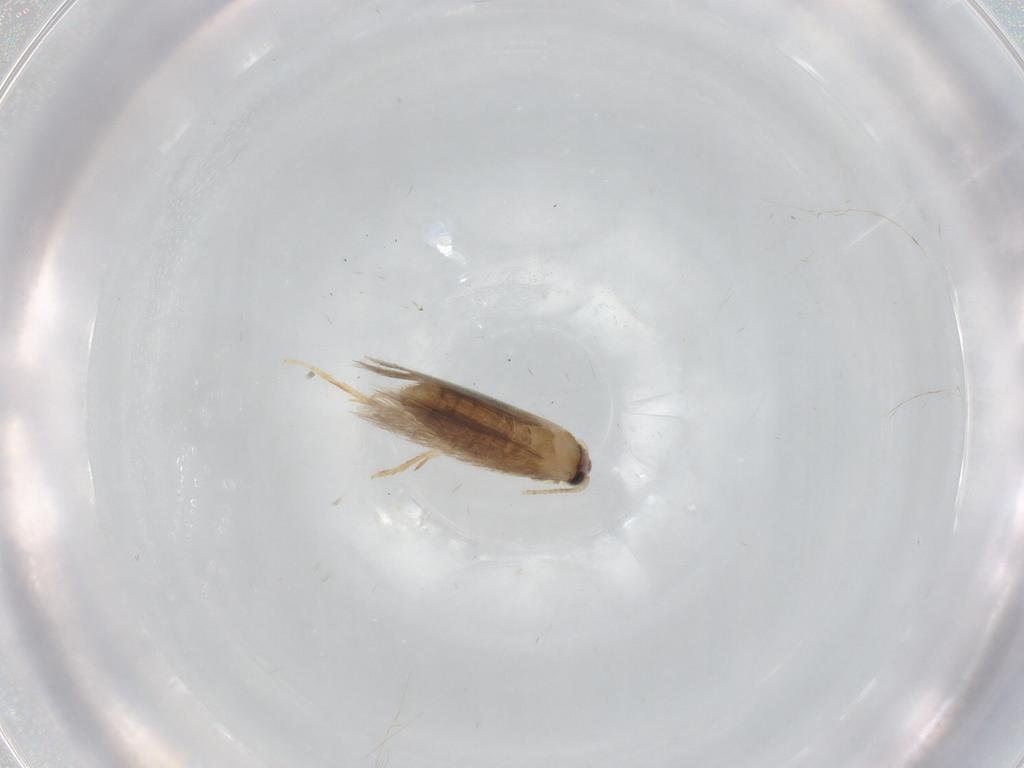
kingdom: Animalia
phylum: Arthropoda
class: Insecta
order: Lepidoptera
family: Nepticulidae
